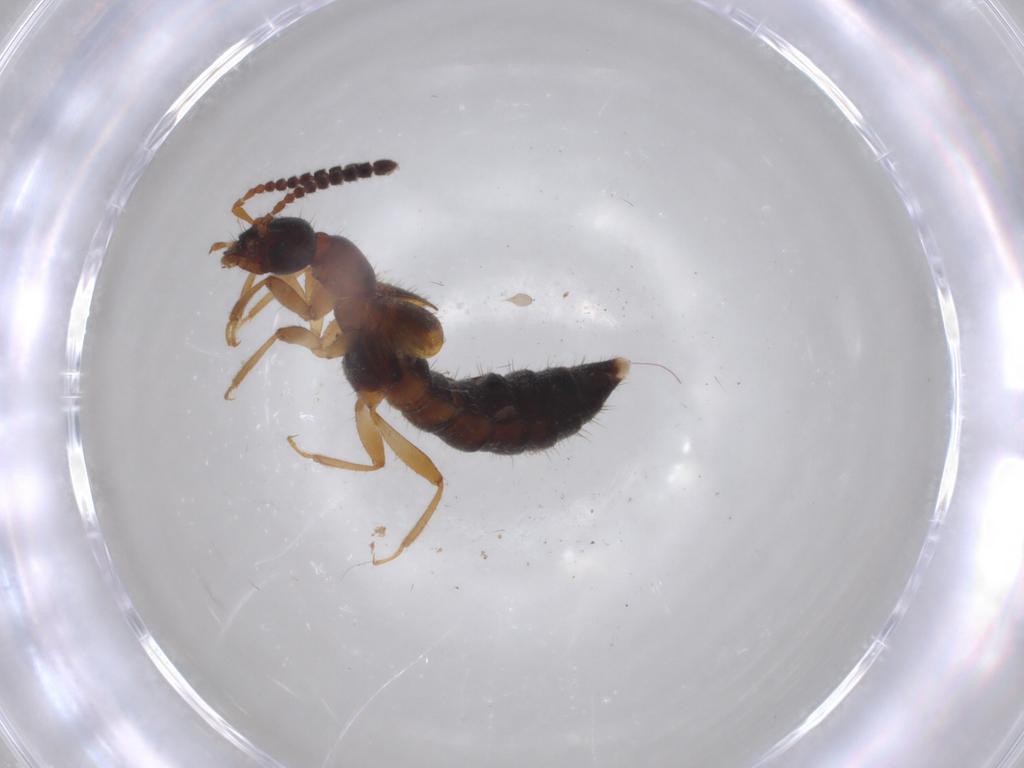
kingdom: Animalia
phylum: Arthropoda
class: Insecta
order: Coleoptera
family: Staphylinidae
